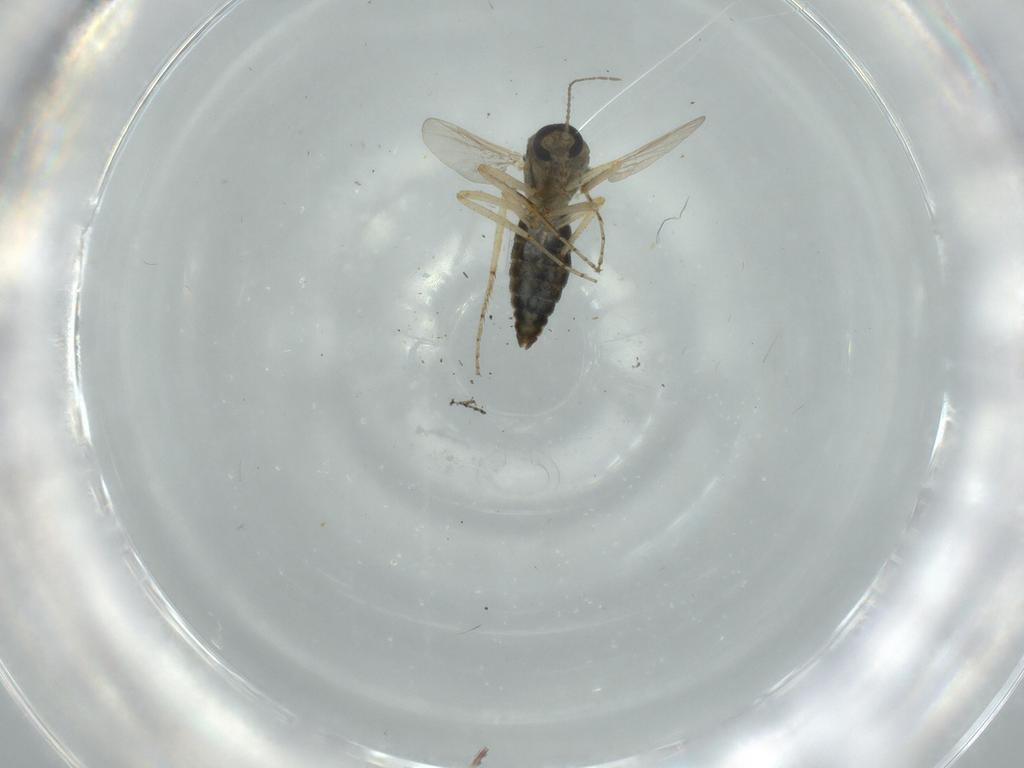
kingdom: Animalia
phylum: Arthropoda
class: Insecta
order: Diptera
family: Ceratopogonidae
